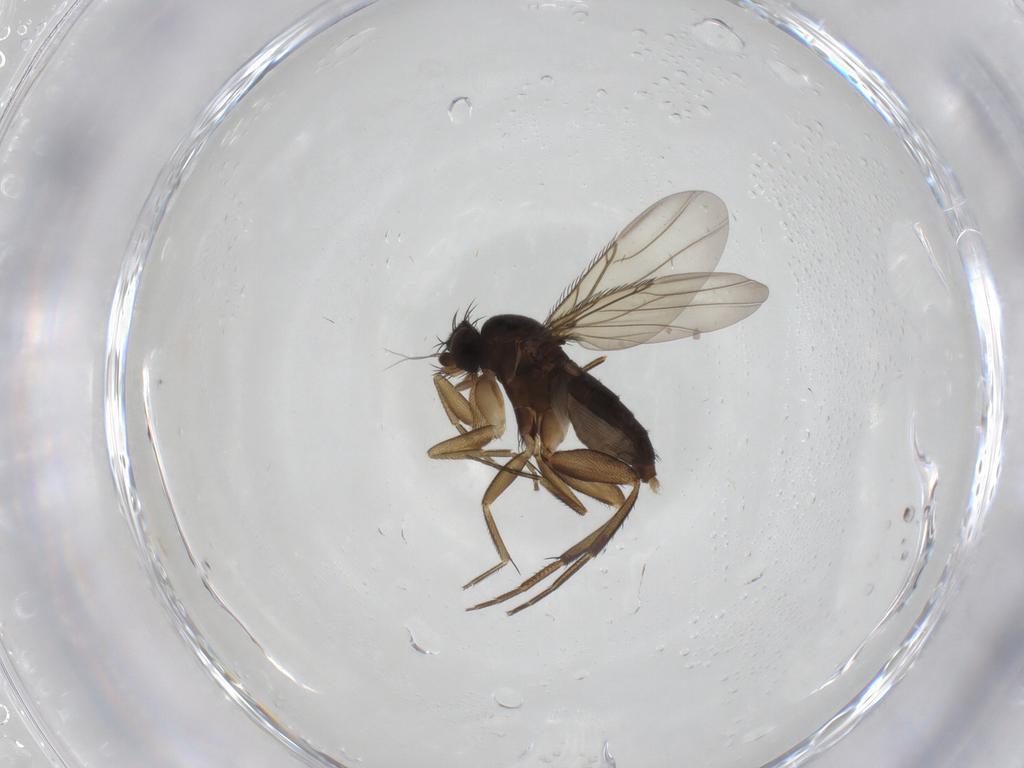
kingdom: Animalia
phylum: Arthropoda
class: Insecta
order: Diptera
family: Phoridae
